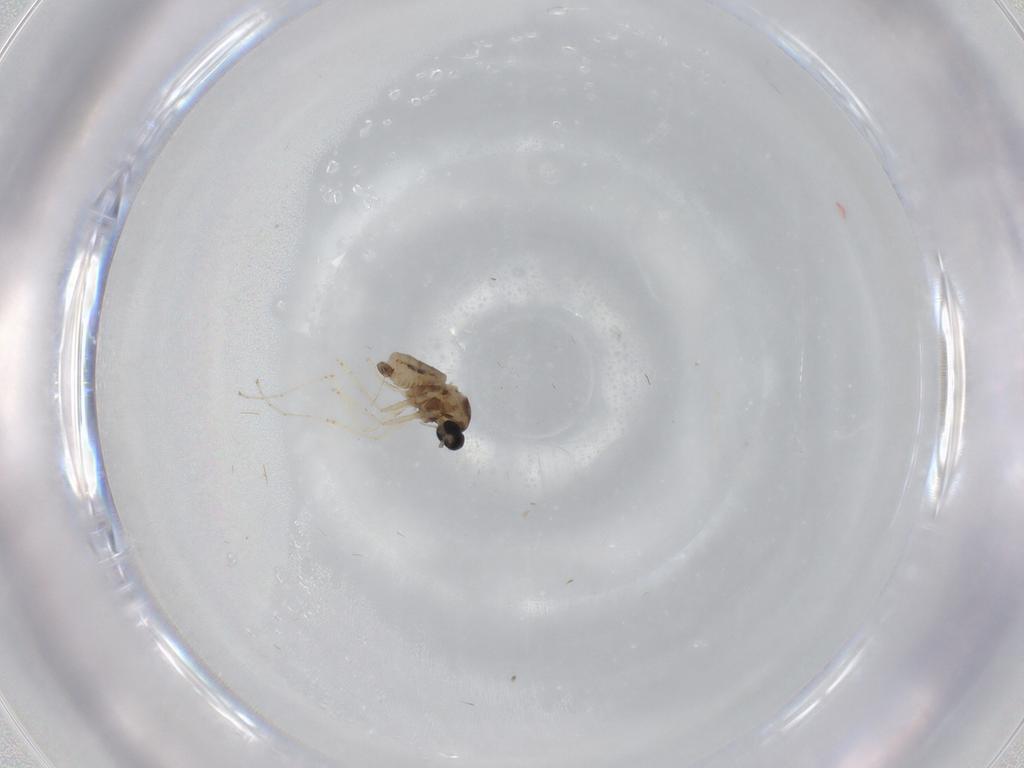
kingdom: Animalia
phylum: Arthropoda
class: Insecta
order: Diptera
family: Cecidomyiidae
